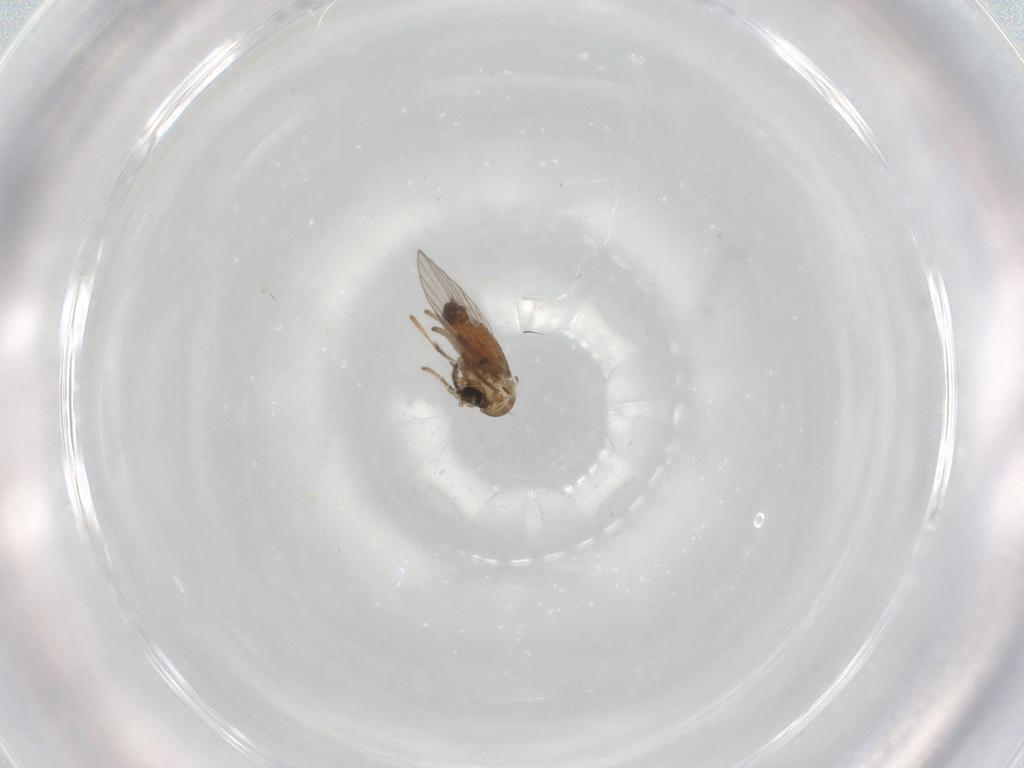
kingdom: Animalia
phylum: Arthropoda
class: Insecta
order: Diptera
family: Psychodidae
